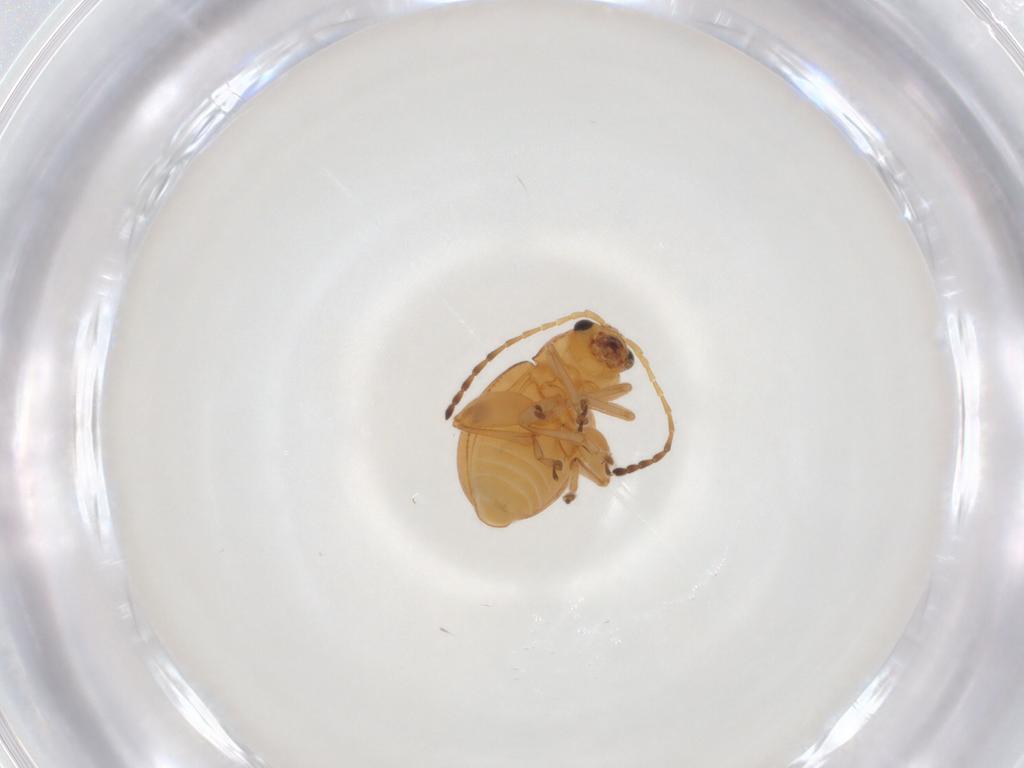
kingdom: Animalia
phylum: Arthropoda
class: Insecta
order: Coleoptera
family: Chrysomelidae
